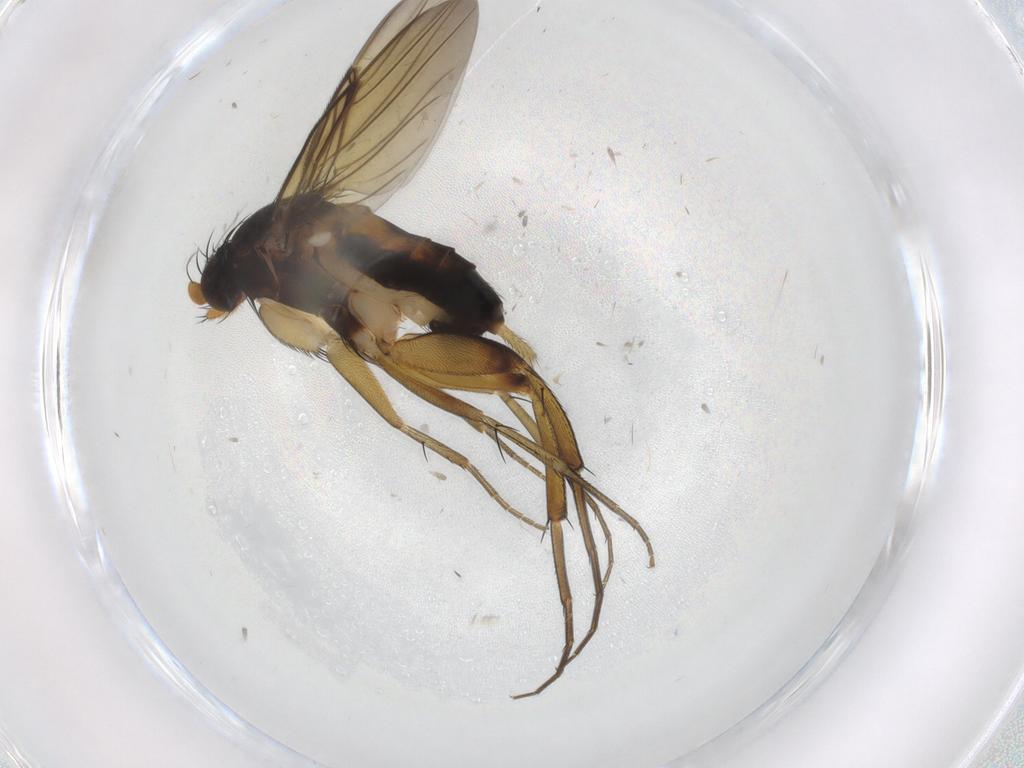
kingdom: Animalia
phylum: Arthropoda
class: Insecta
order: Diptera
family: Phoridae
